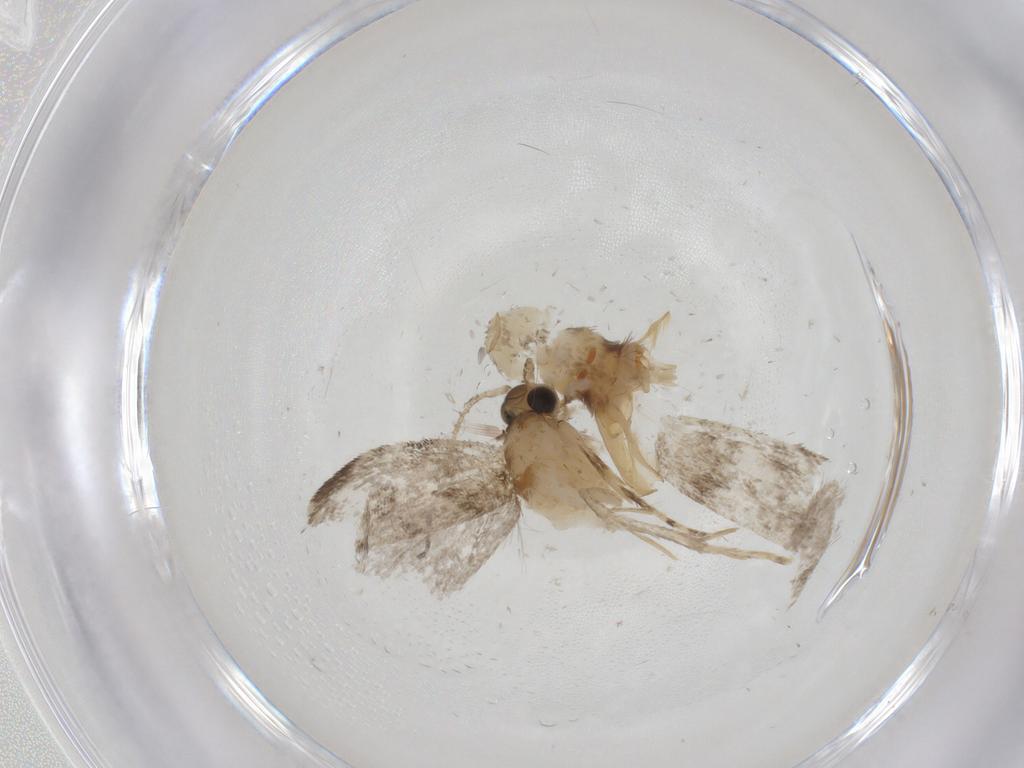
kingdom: Animalia
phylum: Arthropoda
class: Insecta
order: Lepidoptera
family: Tineidae
